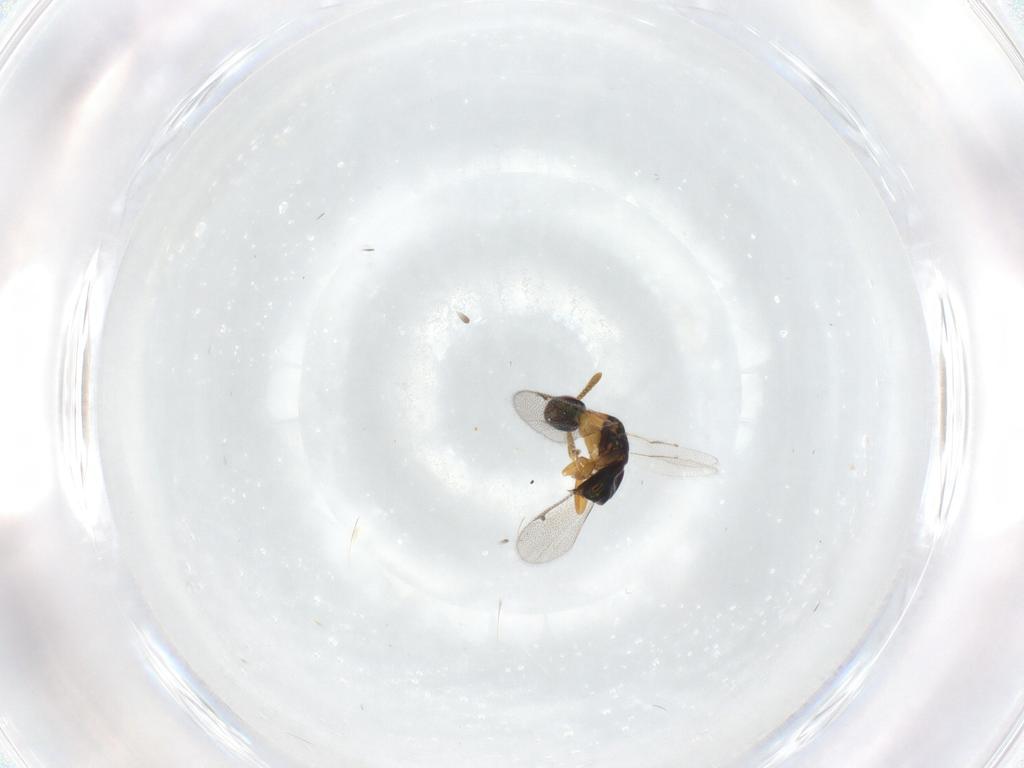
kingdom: Animalia
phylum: Arthropoda
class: Insecta
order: Hymenoptera
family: Torymidae
